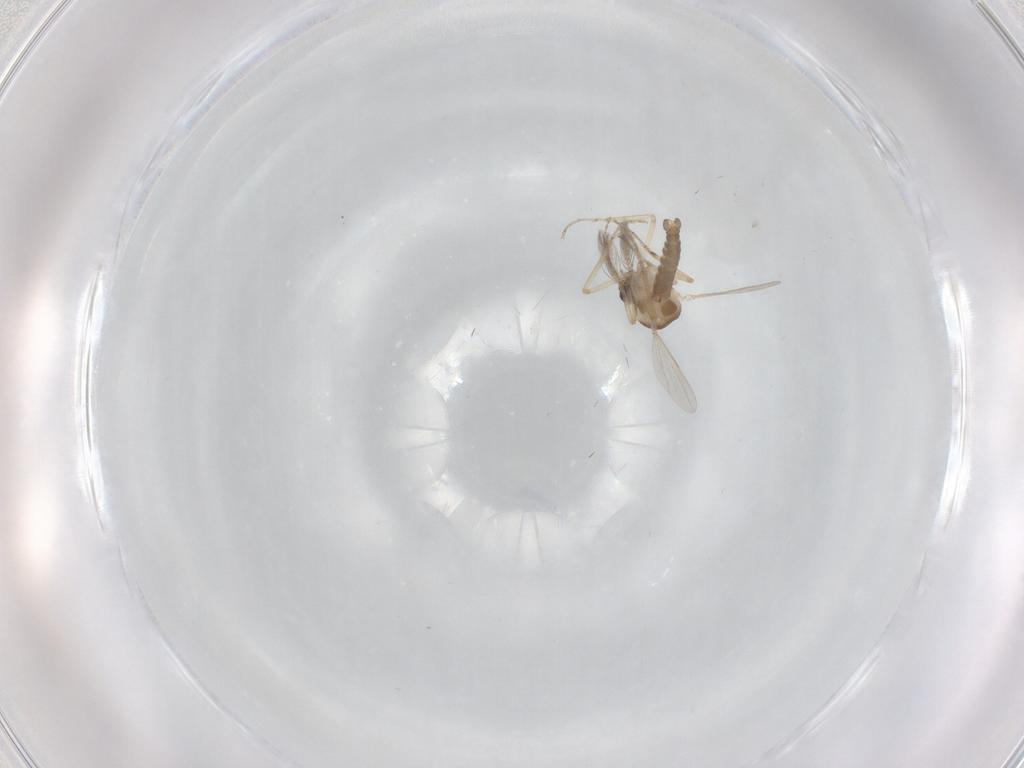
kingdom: Animalia
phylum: Arthropoda
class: Insecta
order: Diptera
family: Ceratopogonidae
